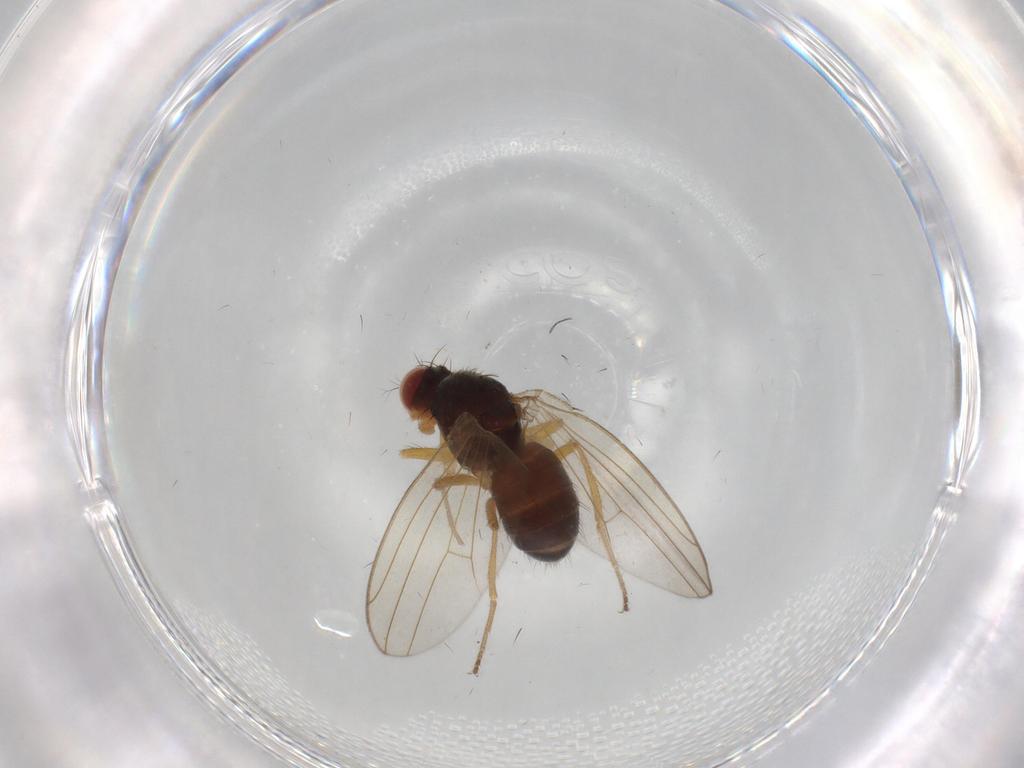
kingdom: Animalia
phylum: Arthropoda
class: Insecta
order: Diptera
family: Drosophilidae
